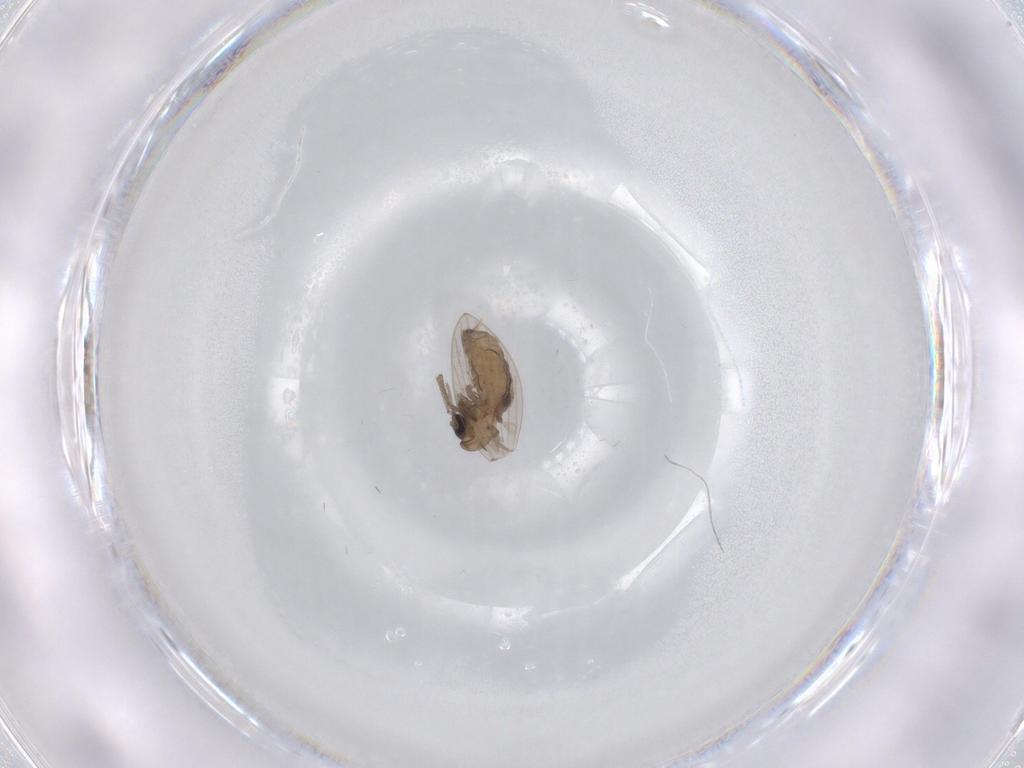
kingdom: Animalia
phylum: Arthropoda
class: Insecta
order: Diptera
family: Psychodidae
